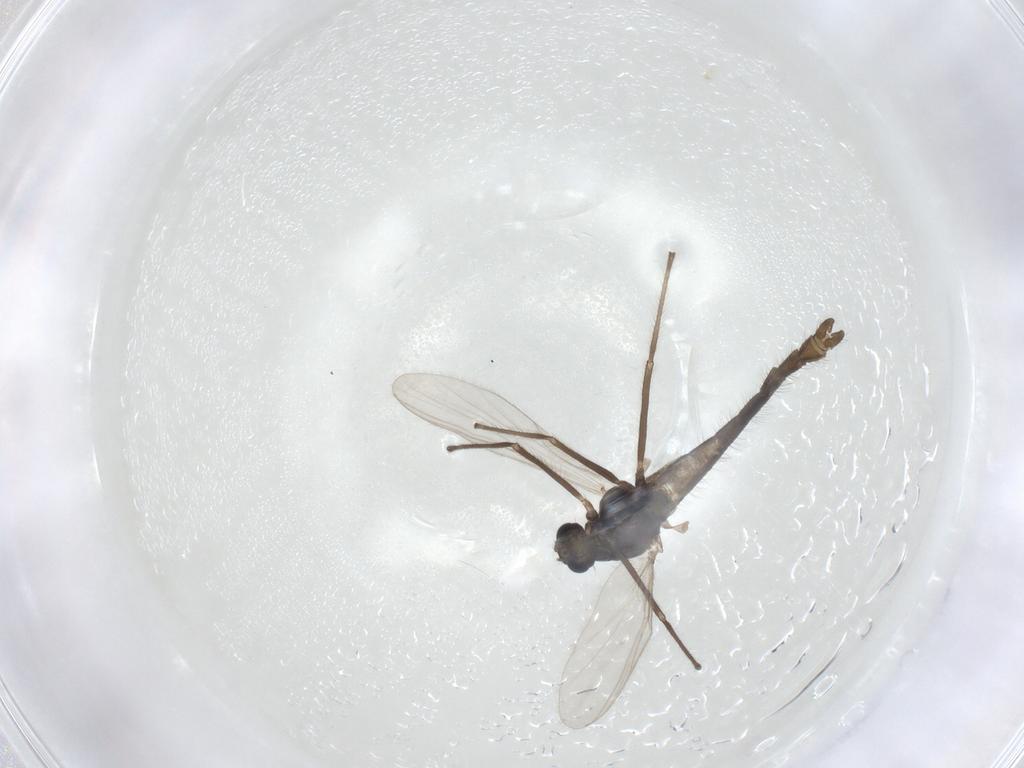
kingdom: Animalia
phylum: Arthropoda
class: Insecta
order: Diptera
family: Chironomidae
